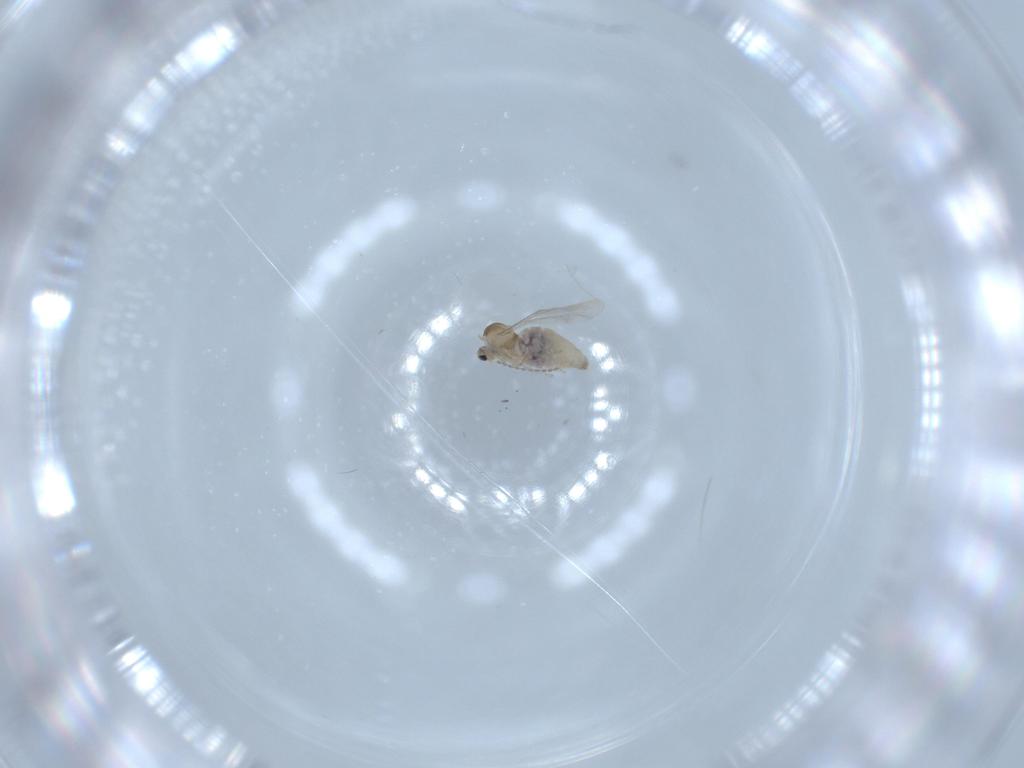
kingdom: Animalia
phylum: Arthropoda
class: Insecta
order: Diptera
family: Cecidomyiidae
